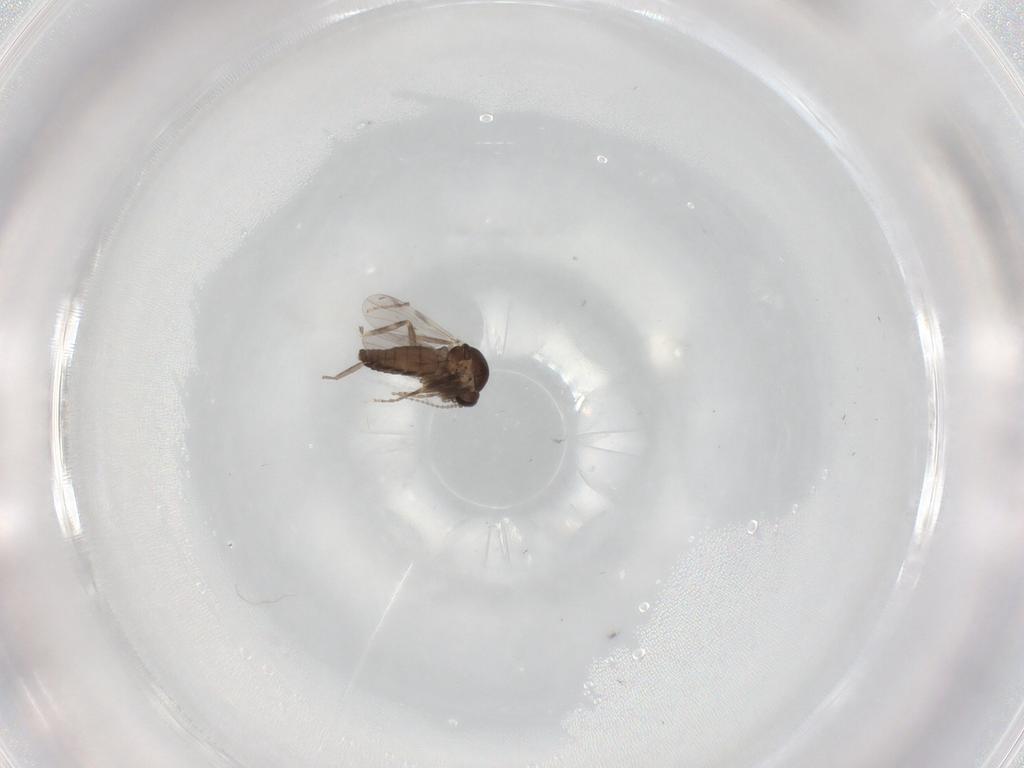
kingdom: Animalia
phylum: Arthropoda
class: Insecta
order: Diptera
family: Ceratopogonidae
